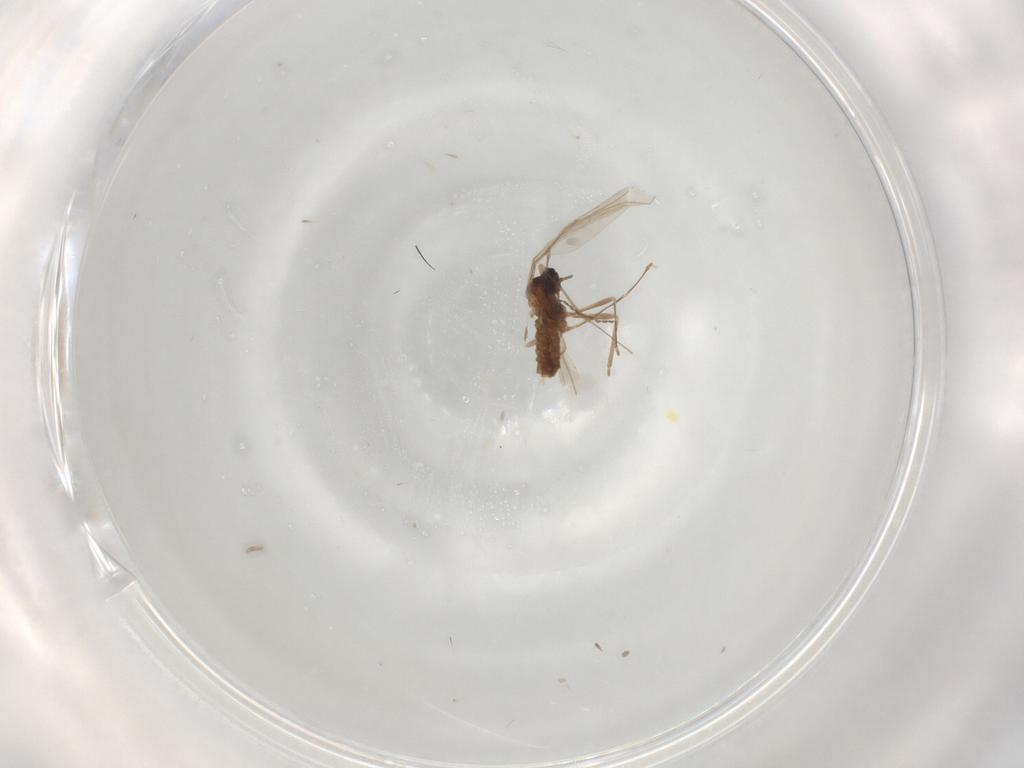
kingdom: Animalia
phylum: Arthropoda
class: Insecta
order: Diptera
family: Cecidomyiidae
